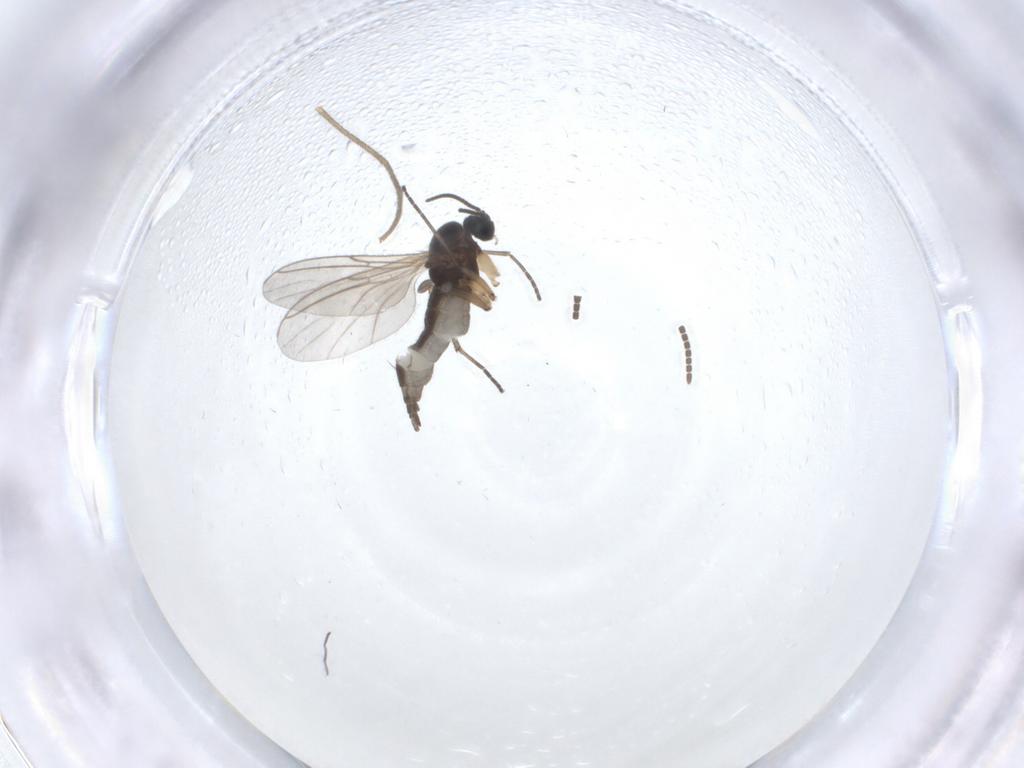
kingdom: Animalia
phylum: Arthropoda
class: Insecta
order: Diptera
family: Sciaridae
